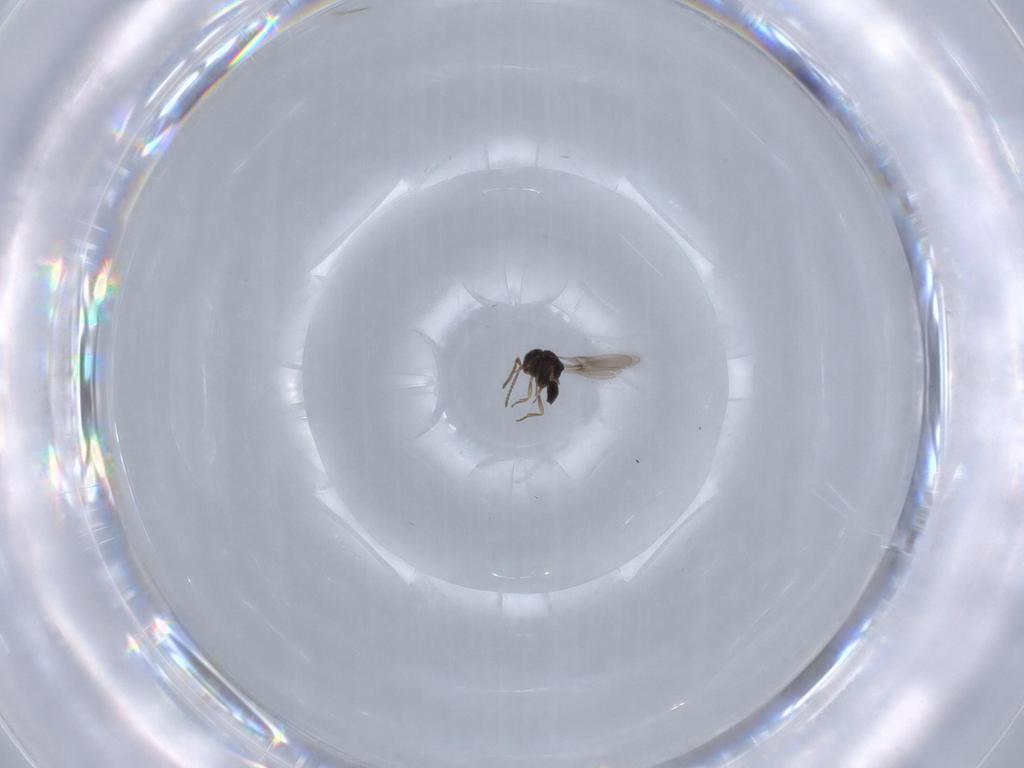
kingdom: Animalia
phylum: Arthropoda
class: Insecta
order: Hymenoptera
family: Scelionidae
